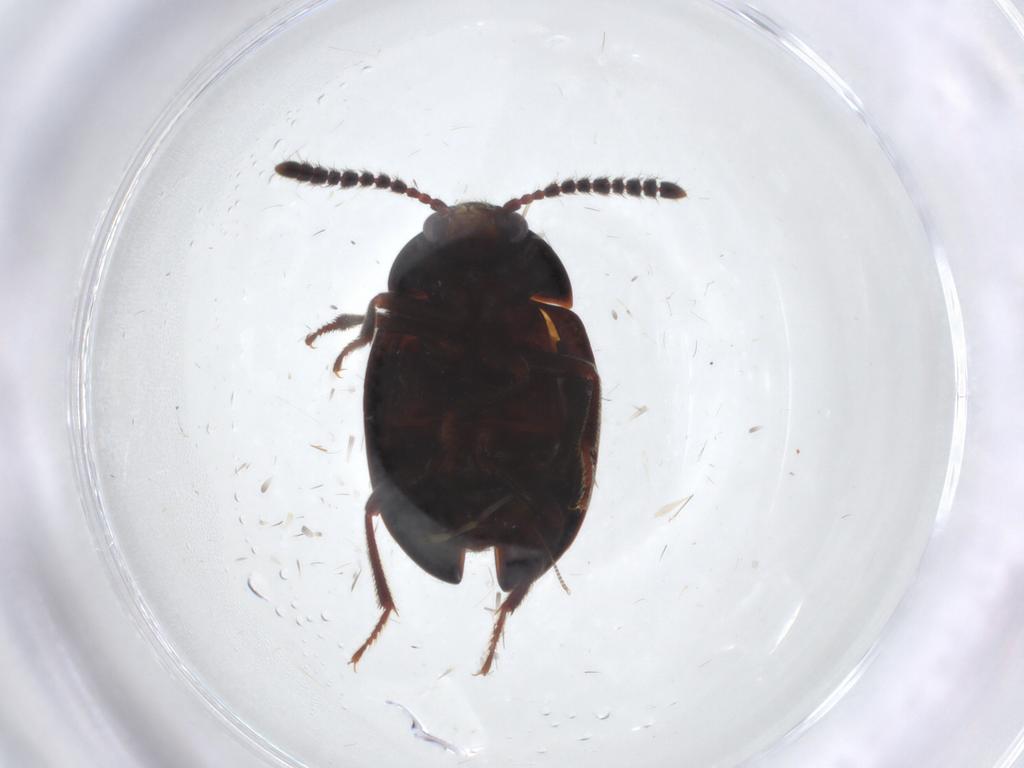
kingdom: Animalia
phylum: Arthropoda
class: Insecta
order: Coleoptera
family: Leiodidae
